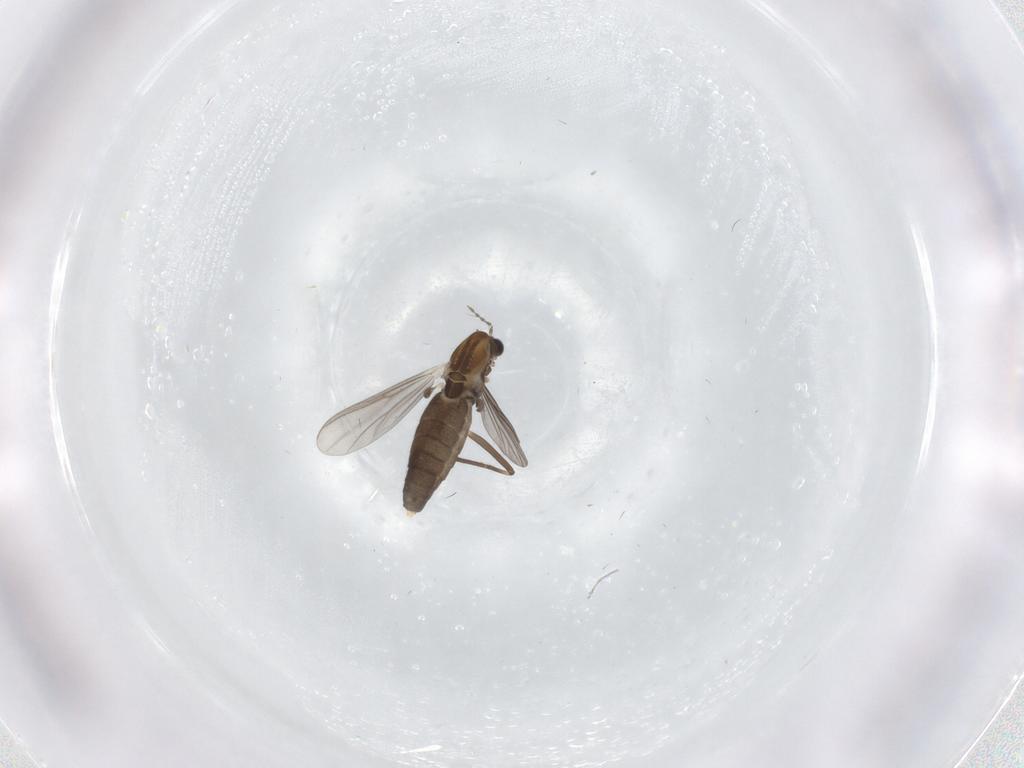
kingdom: Animalia
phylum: Arthropoda
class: Insecta
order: Diptera
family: Chironomidae
